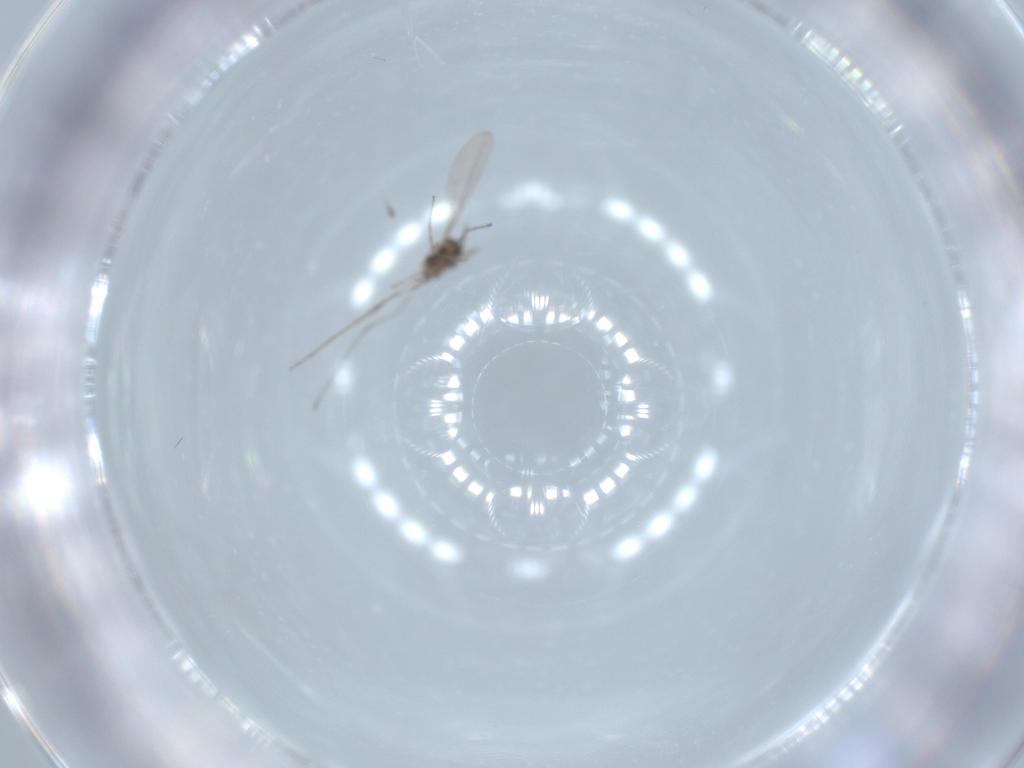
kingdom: Animalia
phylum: Arthropoda
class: Insecta
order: Diptera
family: Cecidomyiidae
